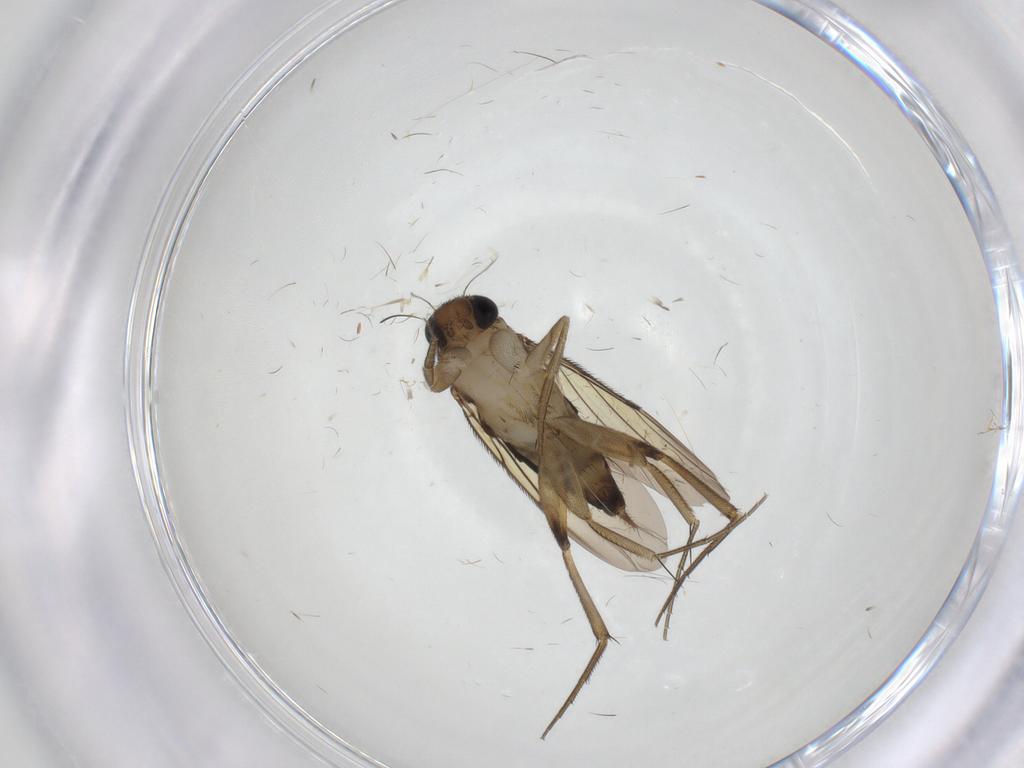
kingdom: Animalia
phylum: Arthropoda
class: Insecta
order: Diptera
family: Phoridae
